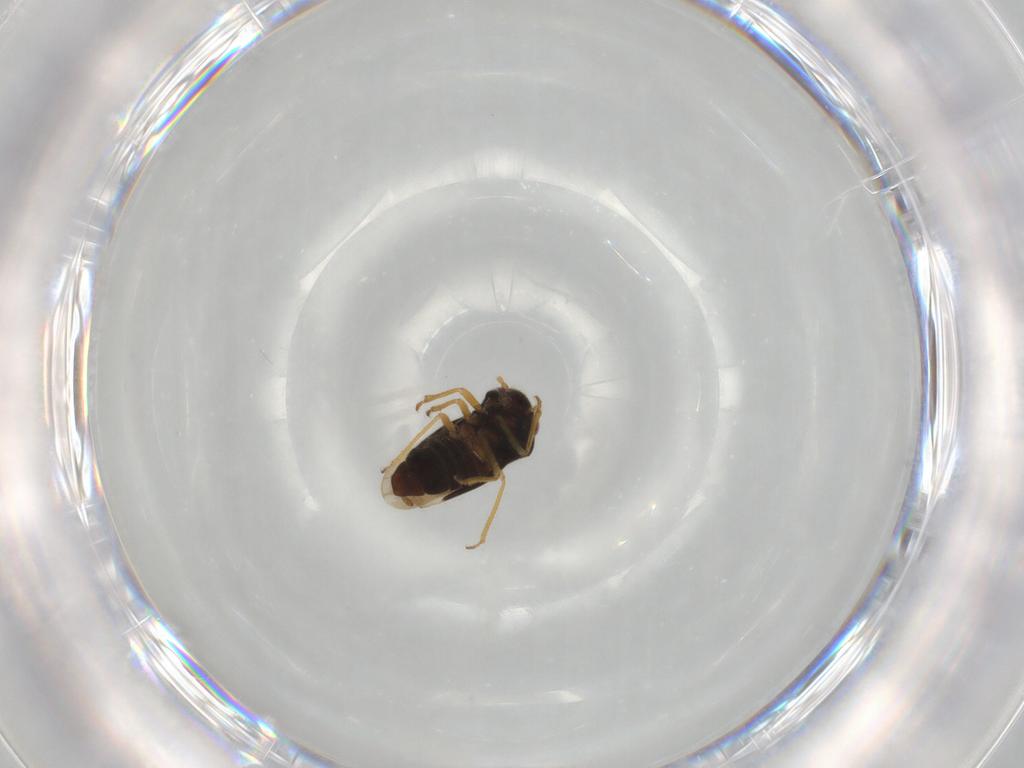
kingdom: Animalia
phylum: Arthropoda
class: Insecta
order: Hemiptera
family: Schizopteridae
